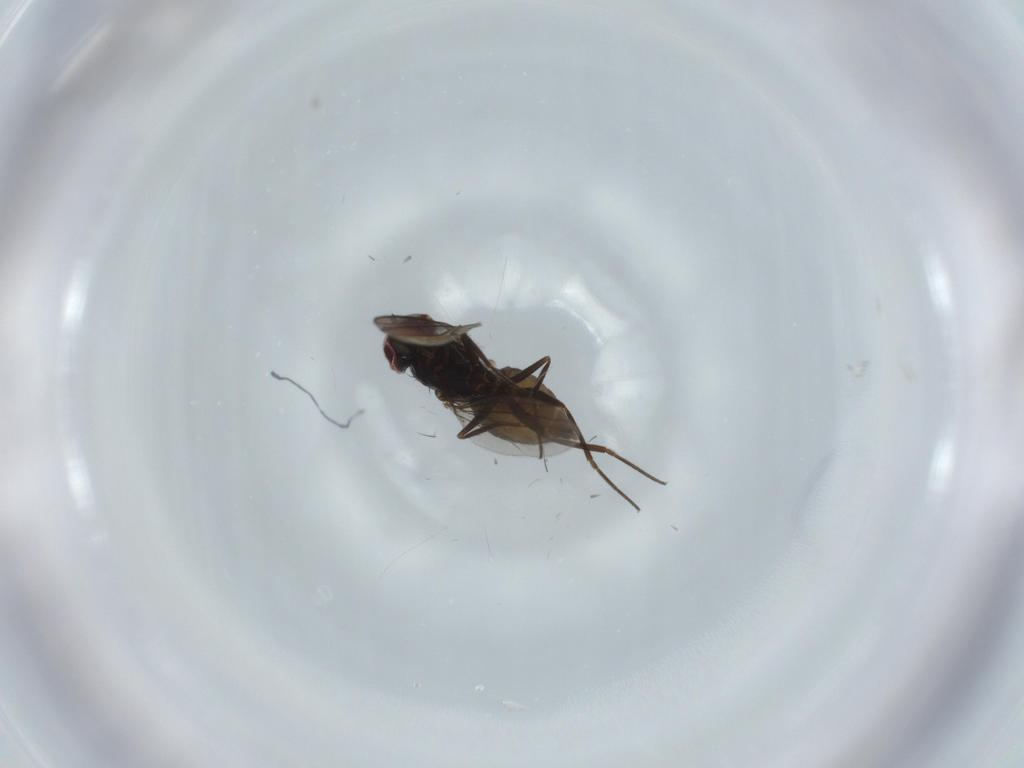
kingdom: Animalia
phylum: Arthropoda
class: Insecta
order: Diptera
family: Dolichopodidae
